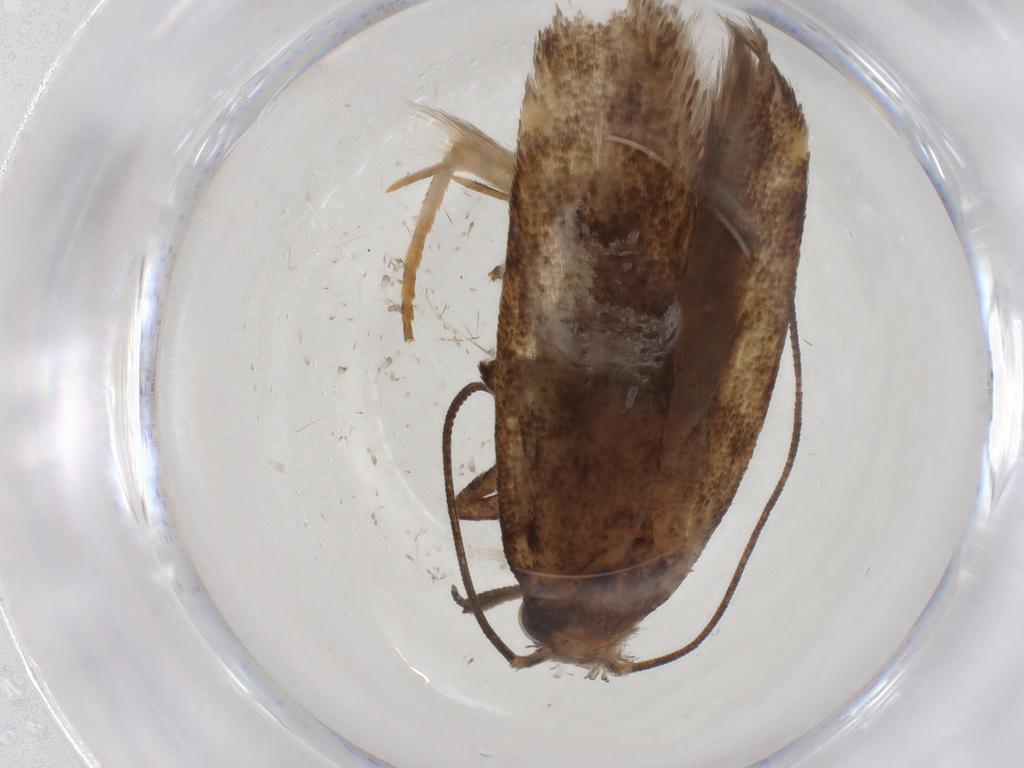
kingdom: Animalia
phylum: Arthropoda
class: Insecta
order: Lepidoptera
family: Gelechiidae
